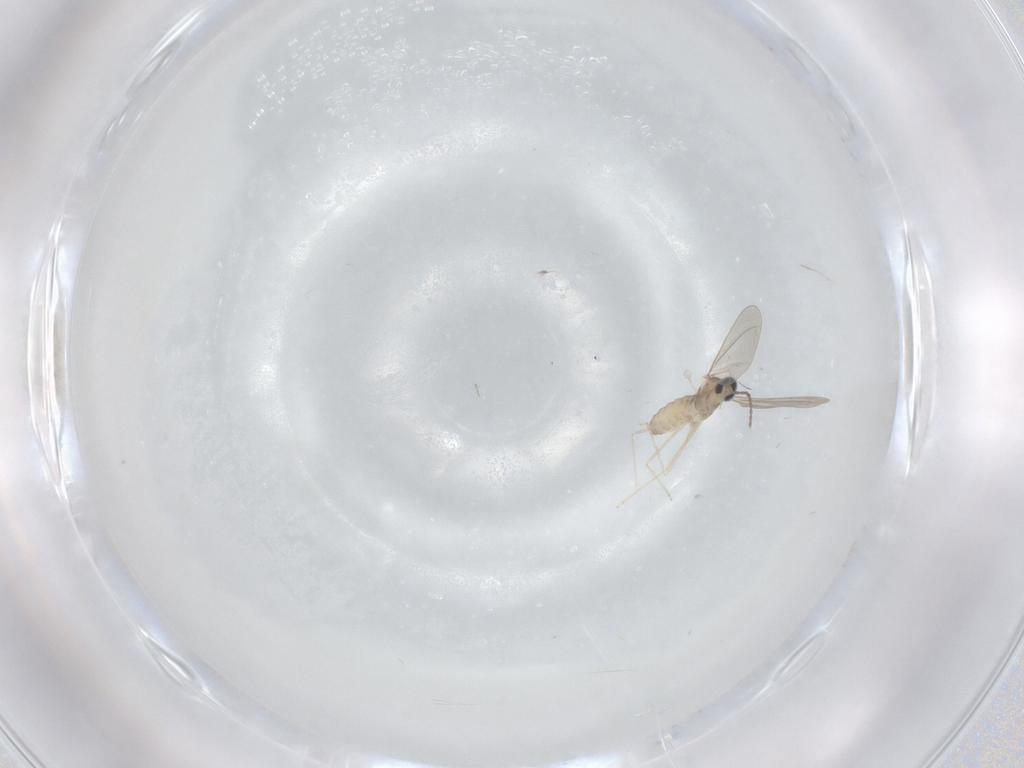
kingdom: Animalia
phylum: Arthropoda
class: Insecta
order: Diptera
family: Cecidomyiidae
